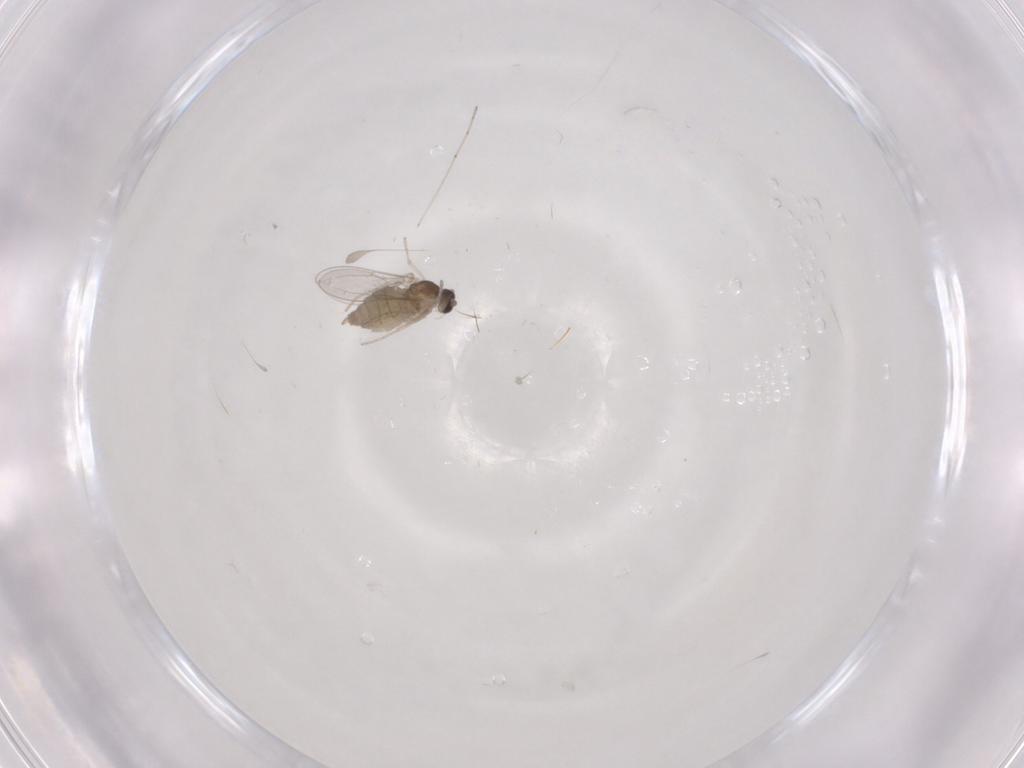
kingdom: Animalia
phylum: Arthropoda
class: Insecta
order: Diptera
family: Cecidomyiidae
